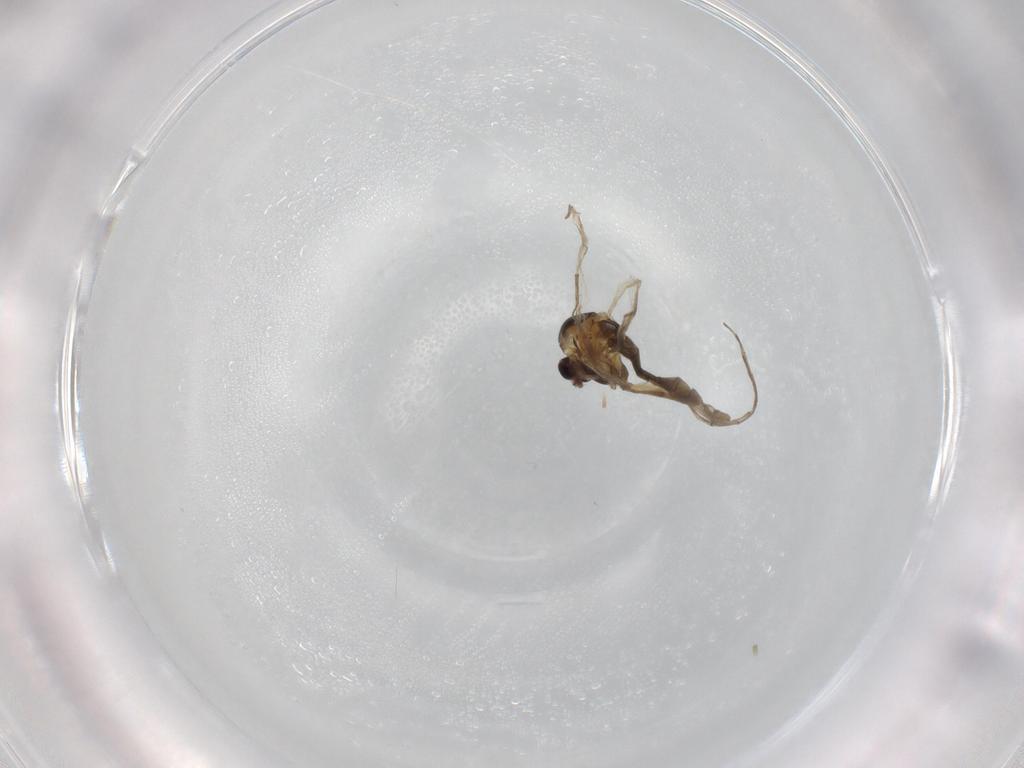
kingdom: Animalia
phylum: Arthropoda
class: Insecta
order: Diptera
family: Chironomidae
